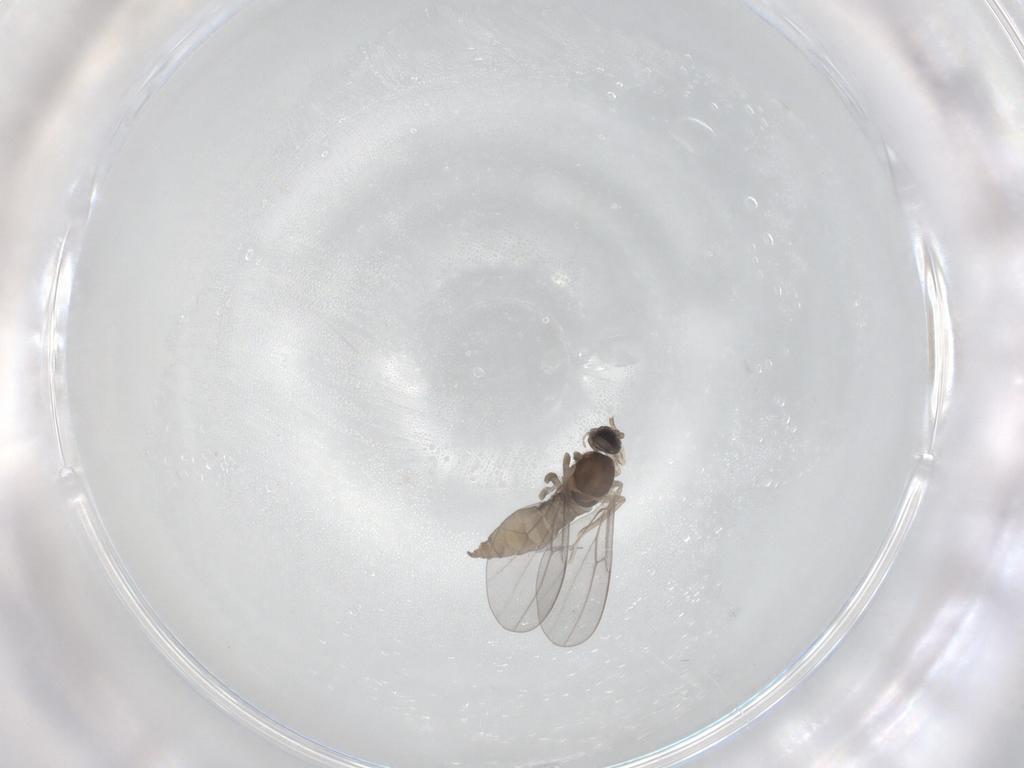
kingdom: Animalia
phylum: Arthropoda
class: Insecta
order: Diptera
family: Cecidomyiidae
